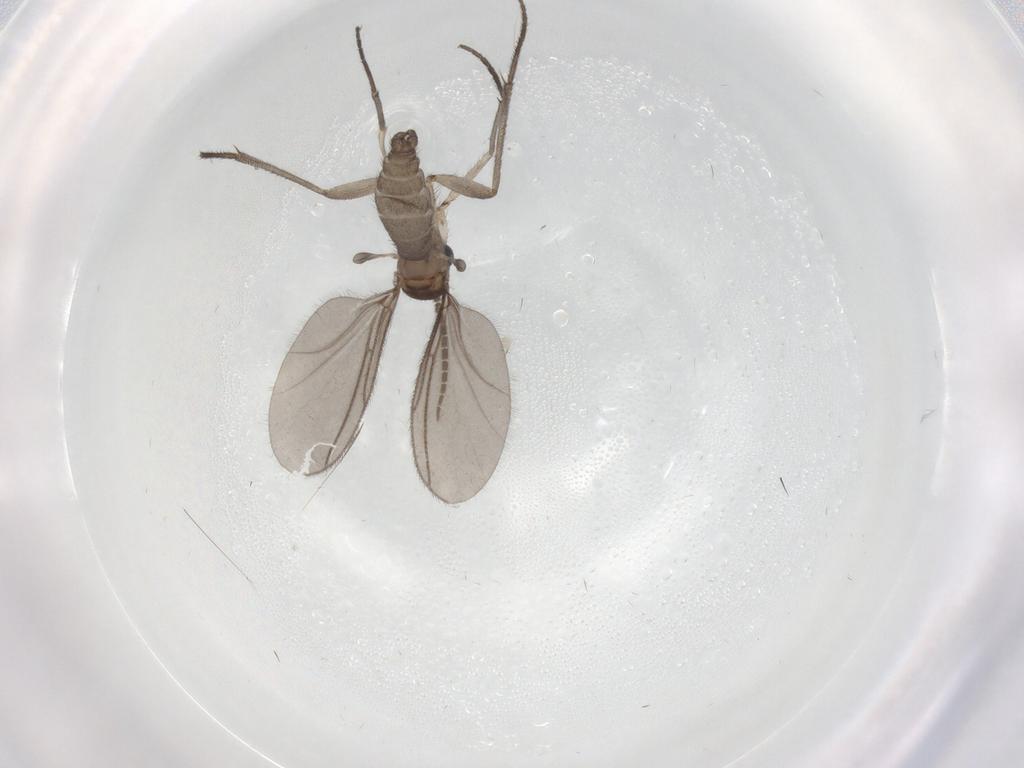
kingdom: Animalia
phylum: Arthropoda
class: Insecta
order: Diptera
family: Sciaridae
